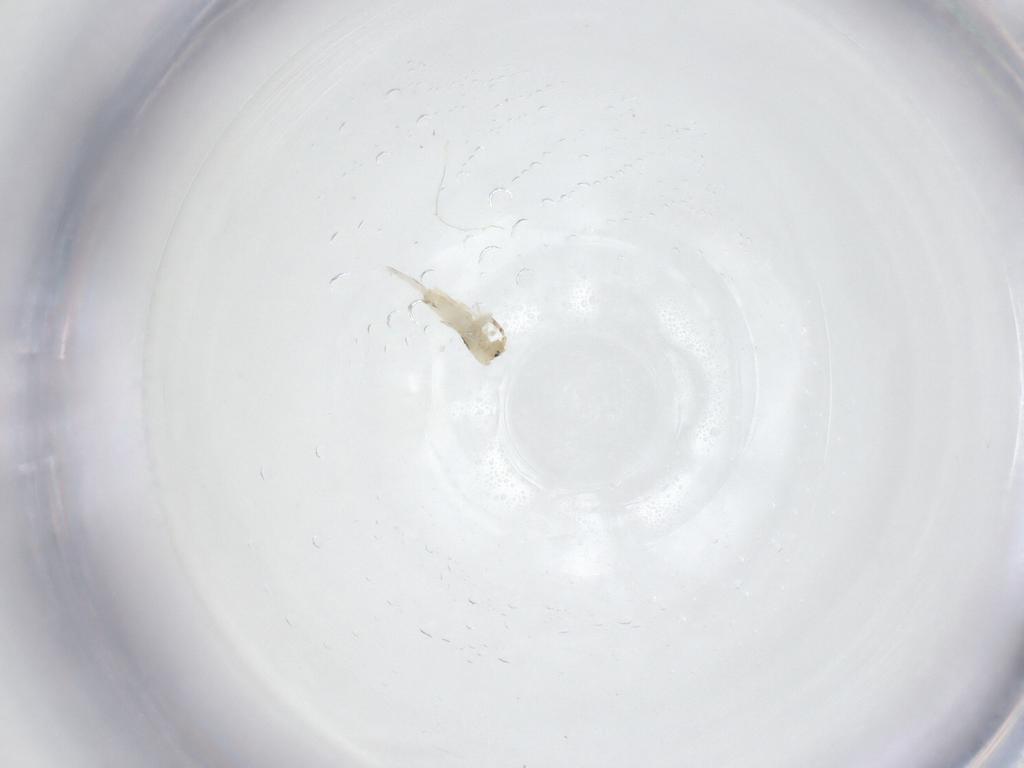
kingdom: Animalia
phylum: Arthropoda
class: Collembola
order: Entomobryomorpha
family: Entomobryidae
